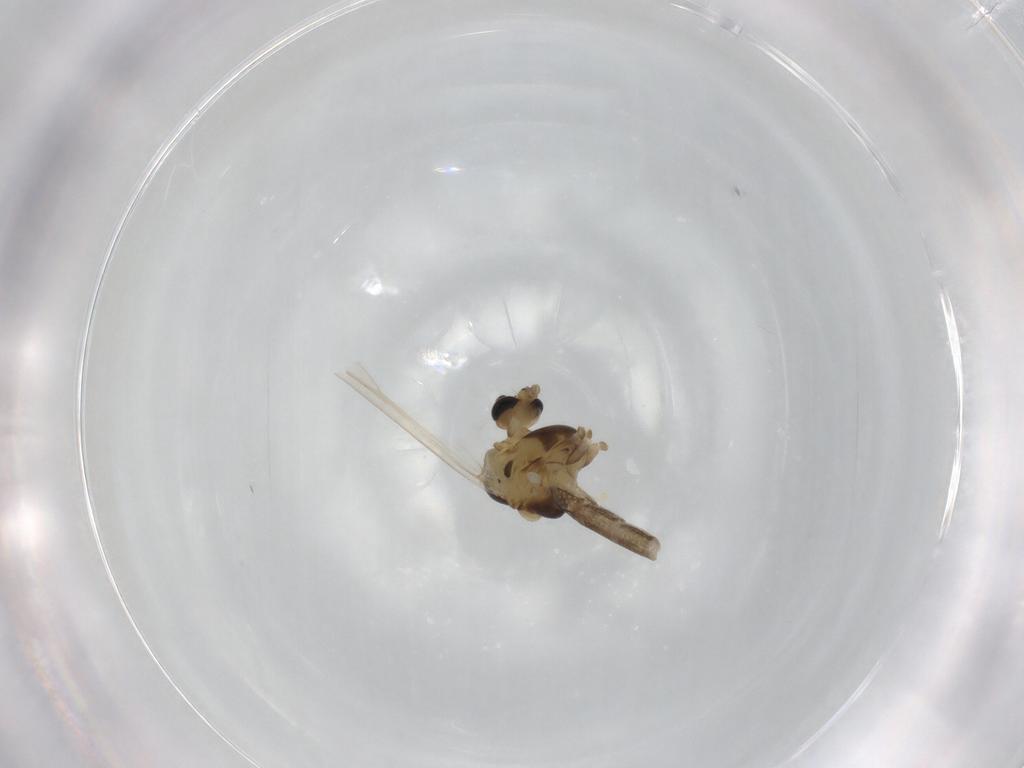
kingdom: Animalia
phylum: Arthropoda
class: Insecta
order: Diptera
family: Chironomidae
